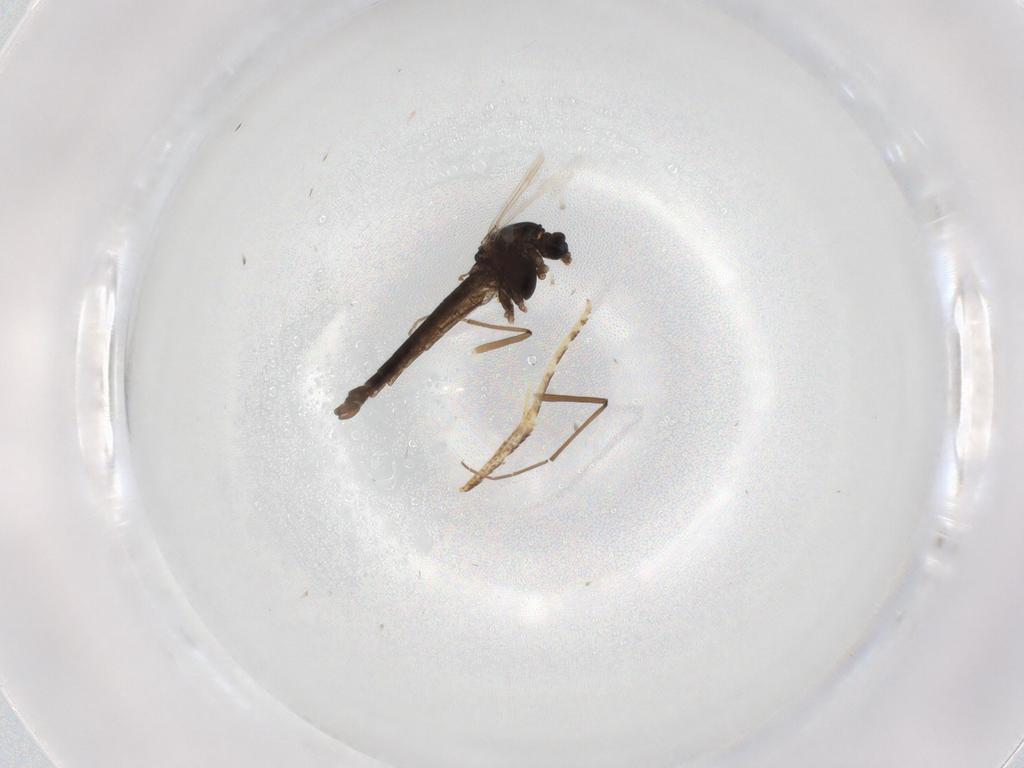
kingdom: Animalia
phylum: Arthropoda
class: Insecta
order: Diptera
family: Chironomidae
